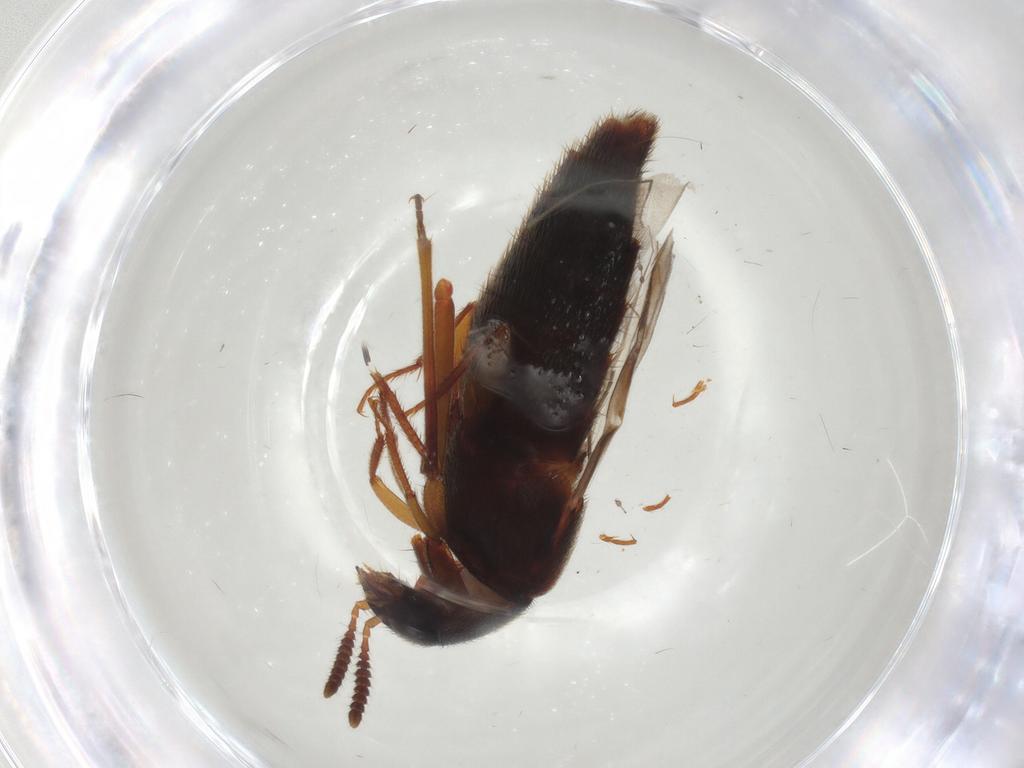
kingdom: Animalia
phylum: Arthropoda
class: Insecta
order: Coleoptera
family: Staphylinidae
